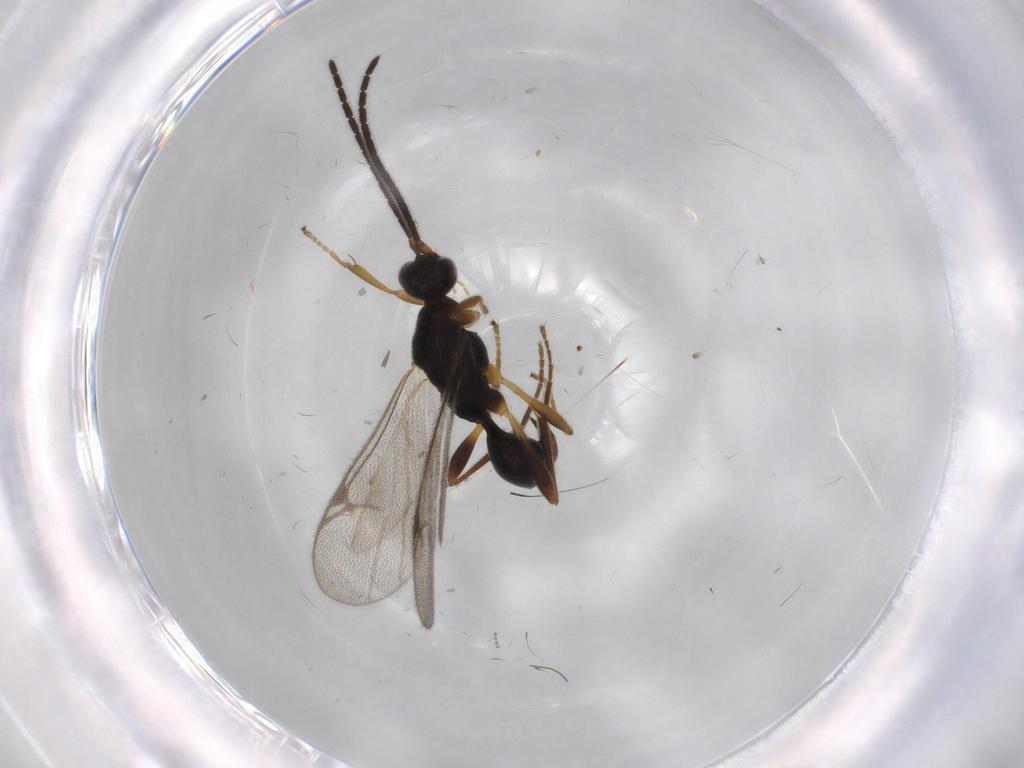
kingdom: Animalia
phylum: Arthropoda
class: Insecta
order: Hymenoptera
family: Proctotrupidae
